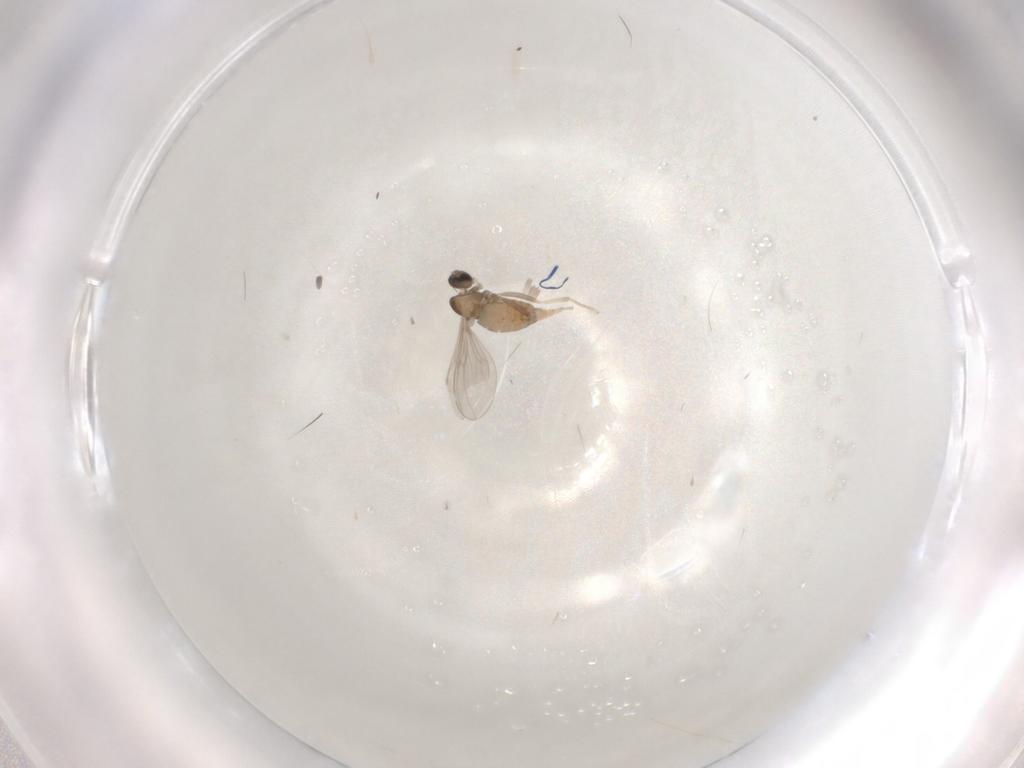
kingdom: Animalia
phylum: Arthropoda
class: Insecta
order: Diptera
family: Cecidomyiidae
